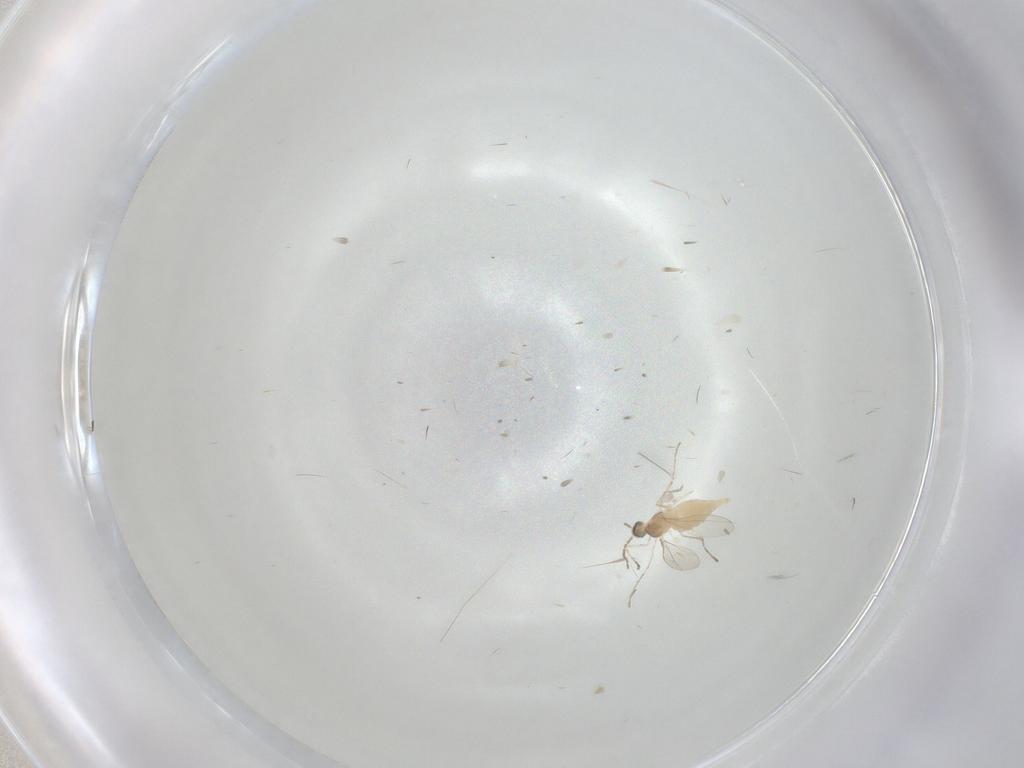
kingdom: Animalia
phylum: Arthropoda
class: Insecta
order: Diptera
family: Cecidomyiidae
